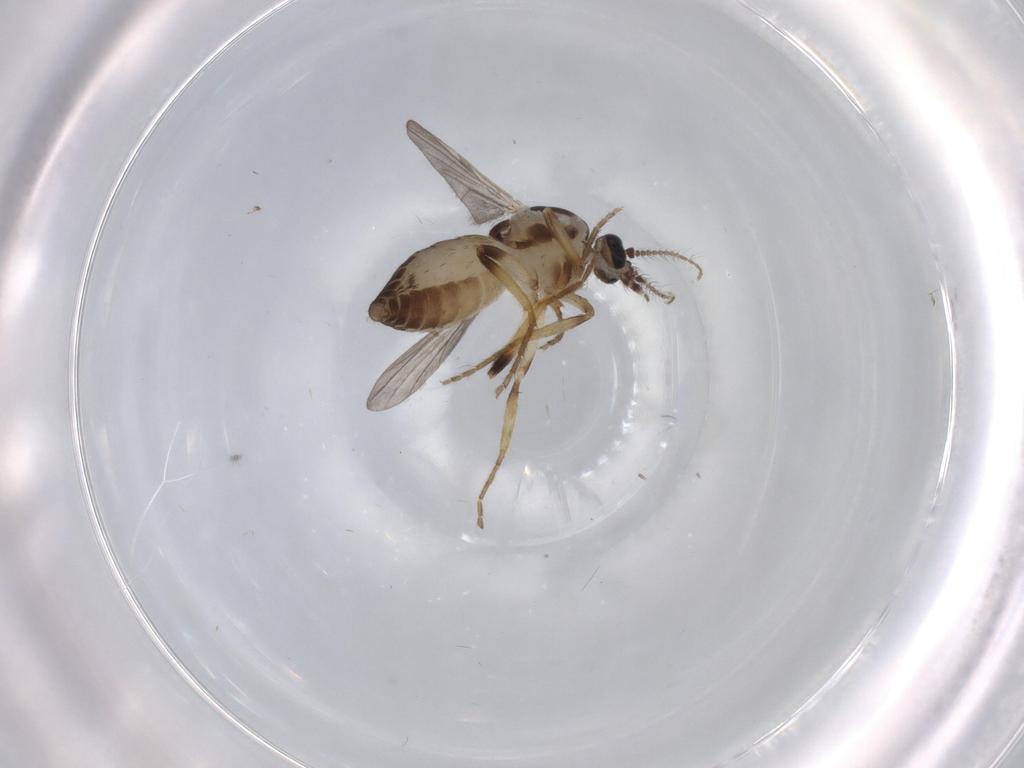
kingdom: Animalia
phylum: Arthropoda
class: Insecta
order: Diptera
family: Ceratopogonidae
